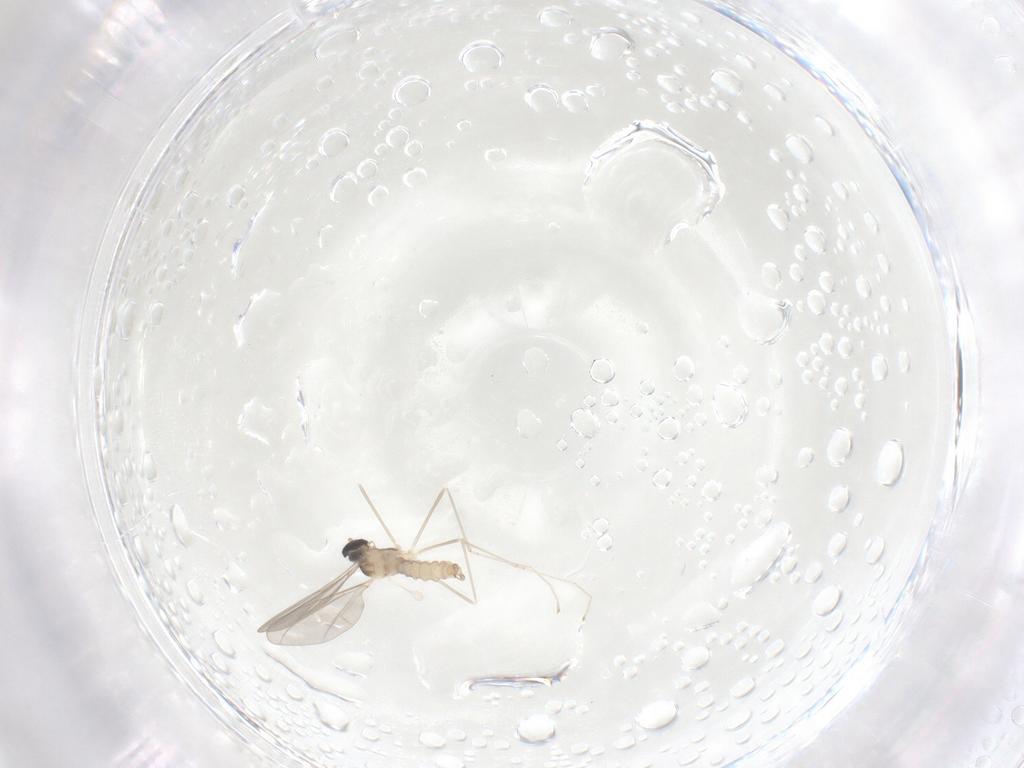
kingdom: Animalia
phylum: Arthropoda
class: Insecta
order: Diptera
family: Cecidomyiidae
